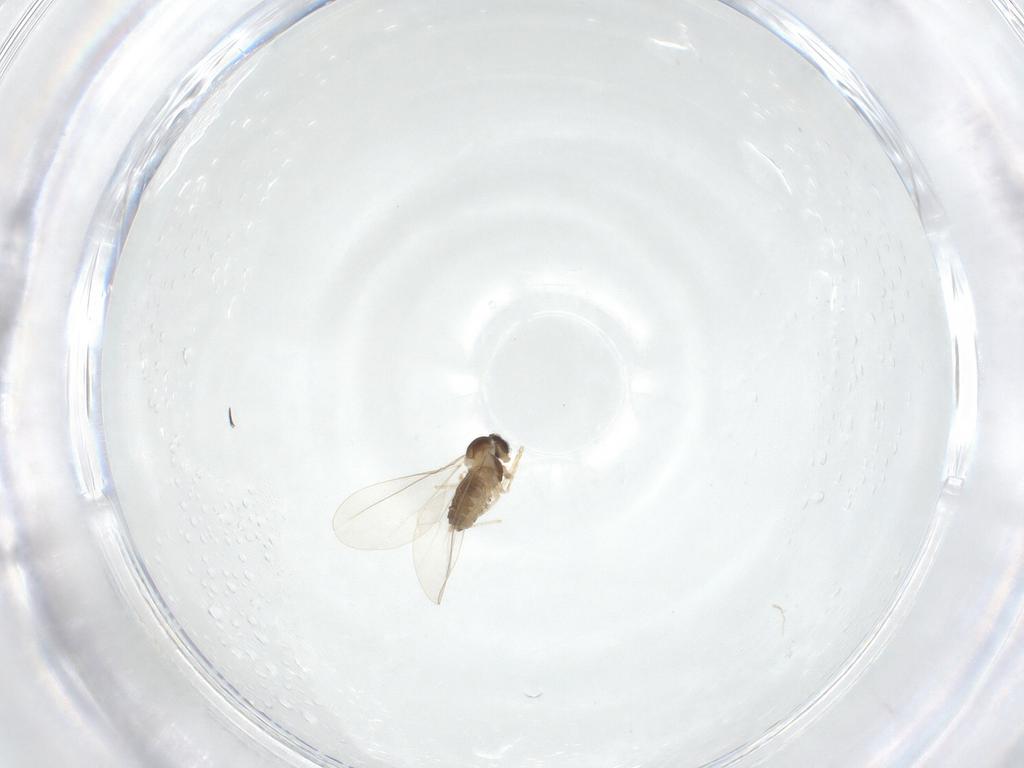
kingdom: Animalia
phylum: Arthropoda
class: Insecta
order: Diptera
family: Cecidomyiidae
